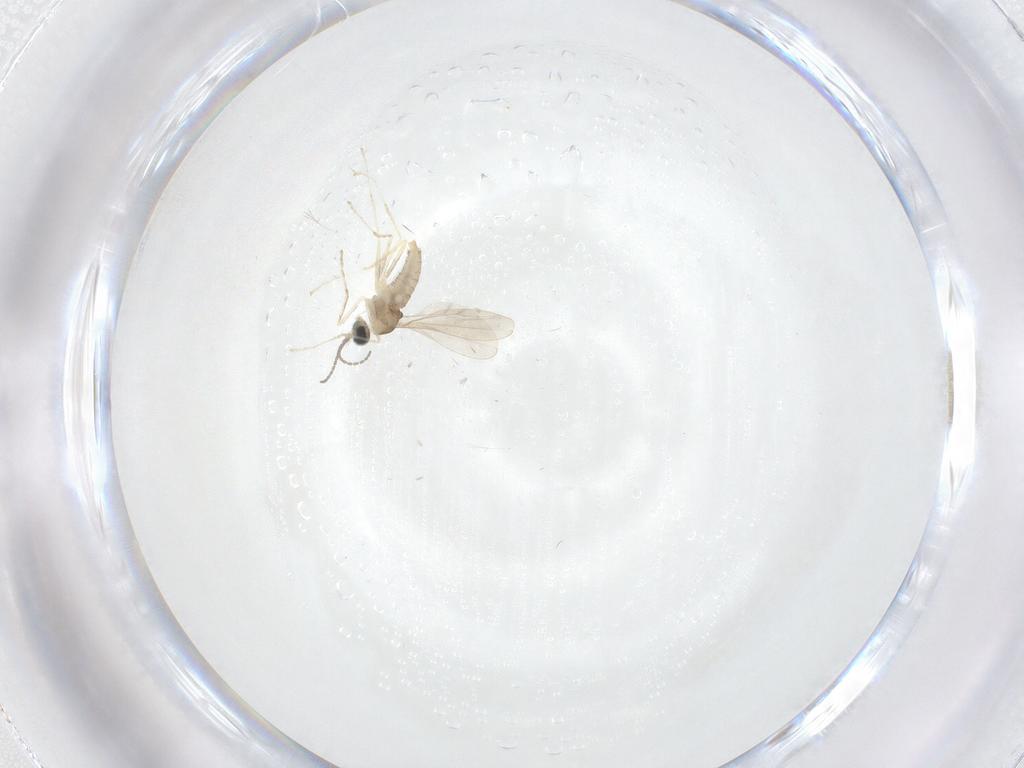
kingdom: Animalia
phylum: Arthropoda
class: Insecta
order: Diptera
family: Cecidomyiidae
